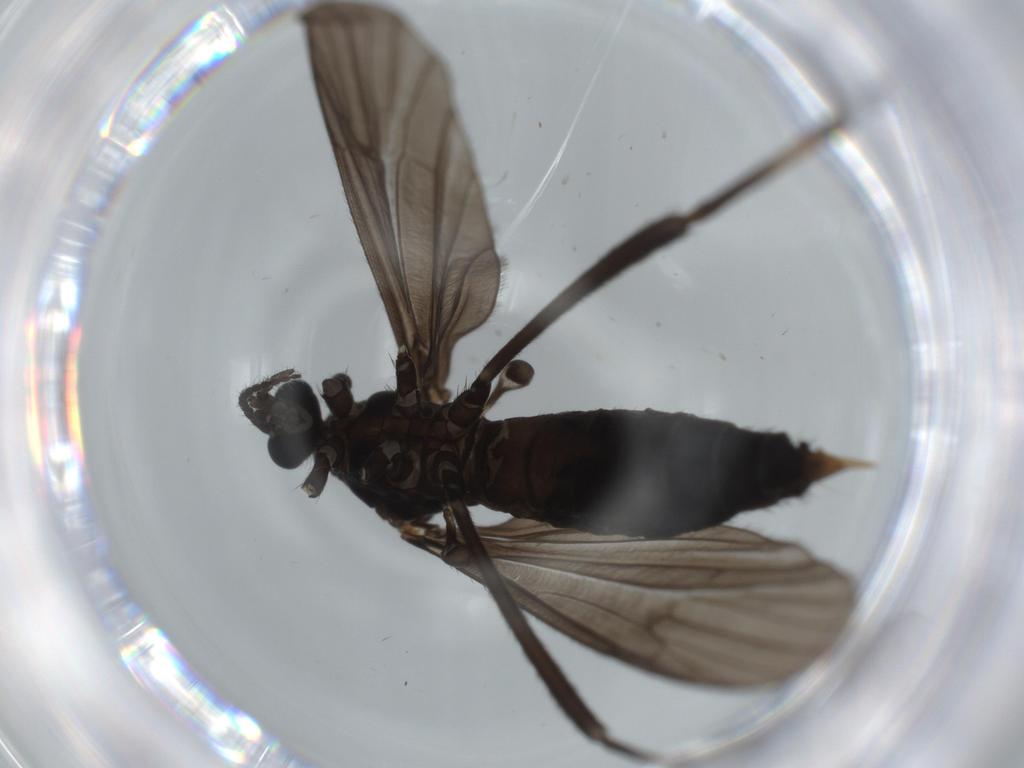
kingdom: Animalia
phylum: Arthropoda
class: Insecta
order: Diptera
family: Limoniidae
